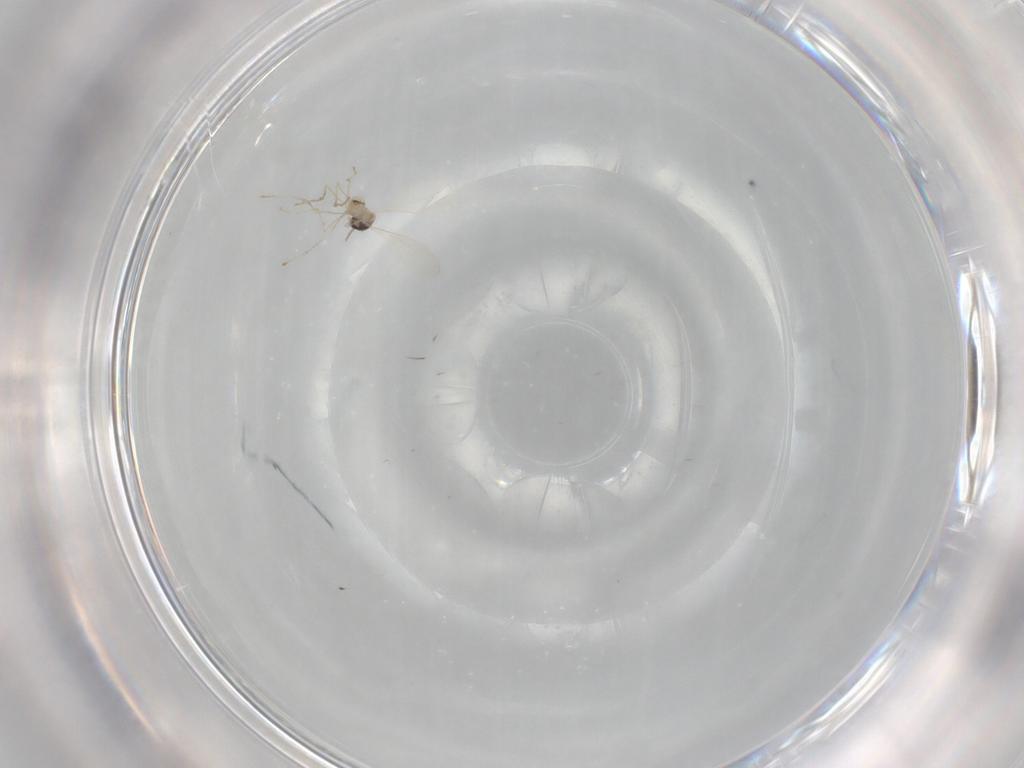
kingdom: Animalia
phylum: Arthropoda
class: Insecta
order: Diptera
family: Sciaridae
